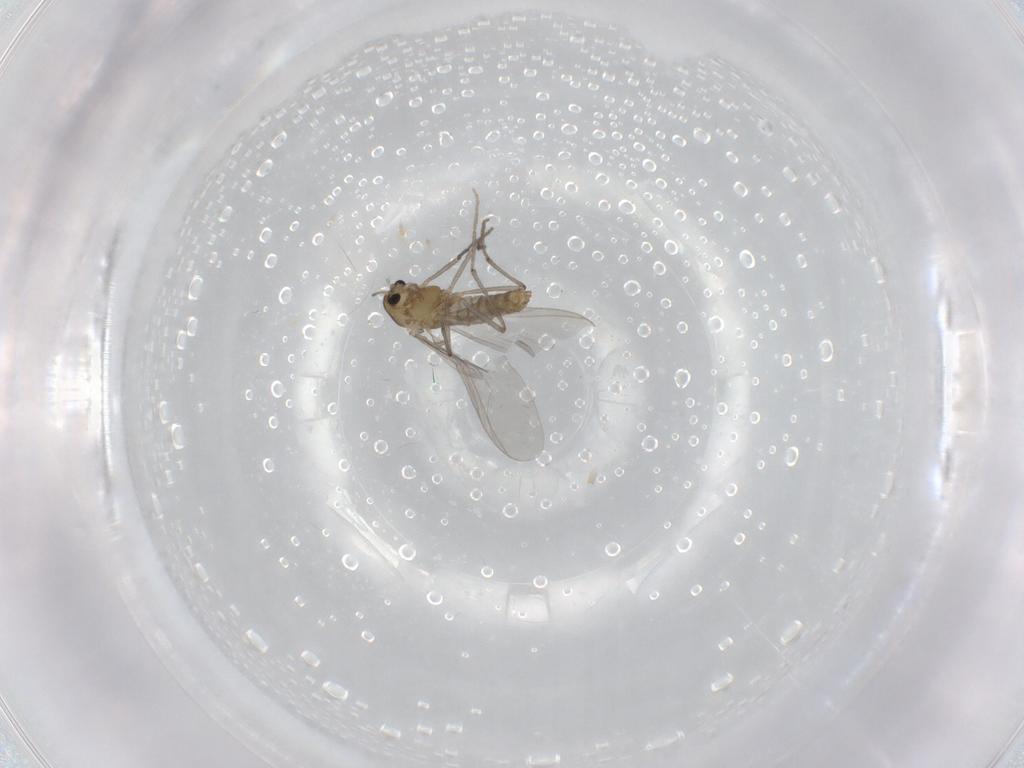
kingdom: Animalia
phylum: Arthropoda
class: Insecta
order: Diptera
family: Chironomidae
